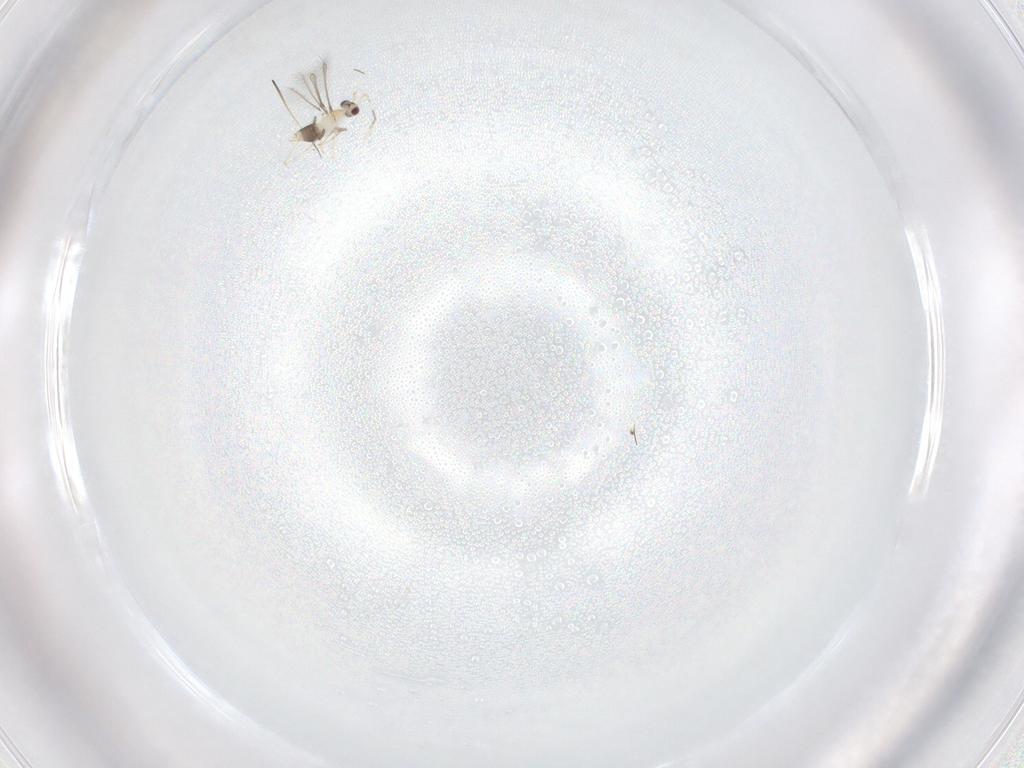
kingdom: Animalia
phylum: Arthropoda
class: Insecta
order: Hymenoptera
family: Mymaridae
